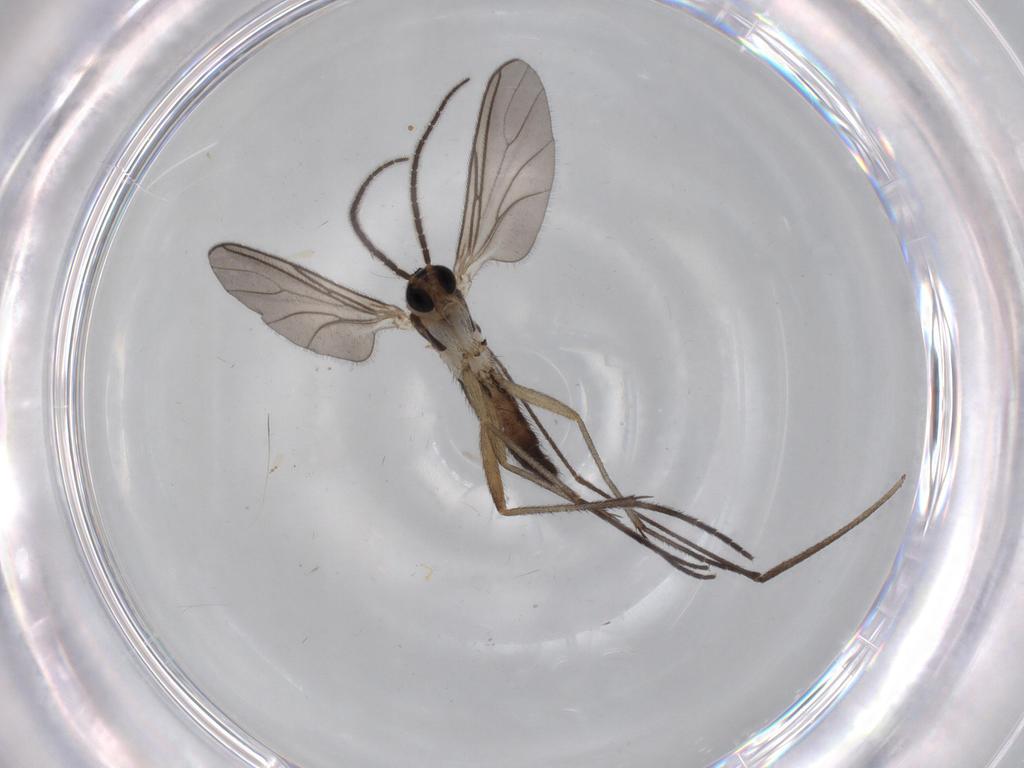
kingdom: Animalia
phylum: Arthropoda
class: Insecta
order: Diptera
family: Sciaridae
